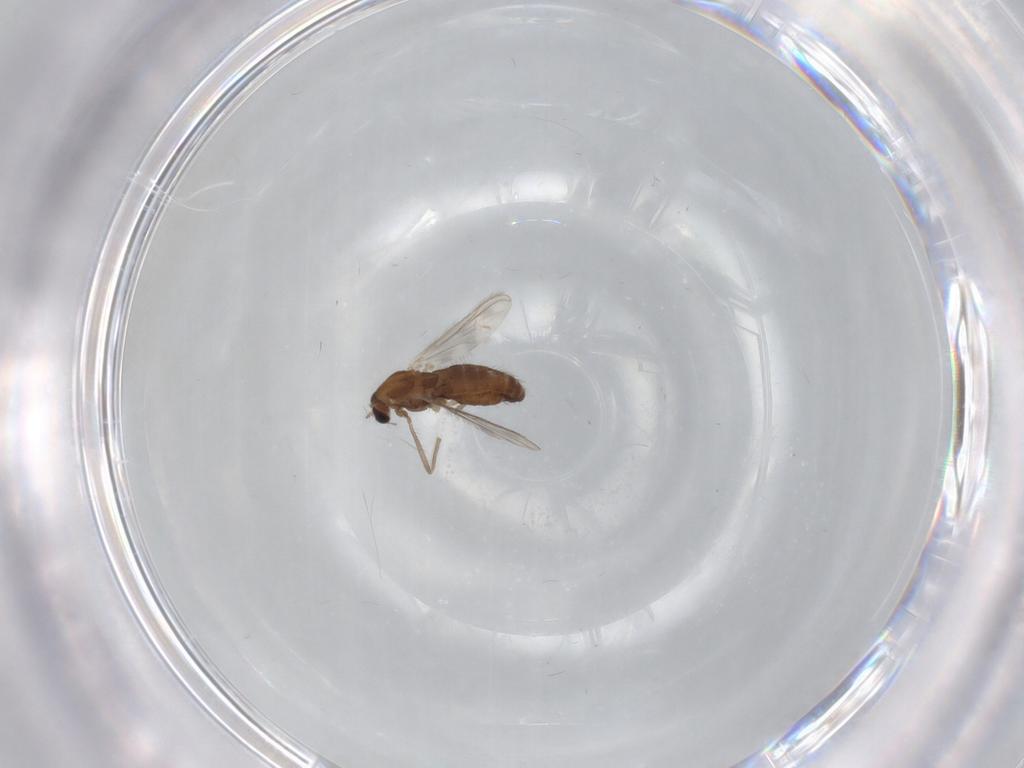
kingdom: Animalia
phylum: Arthropoda
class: Insecta
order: Diptera
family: Chironomidae
